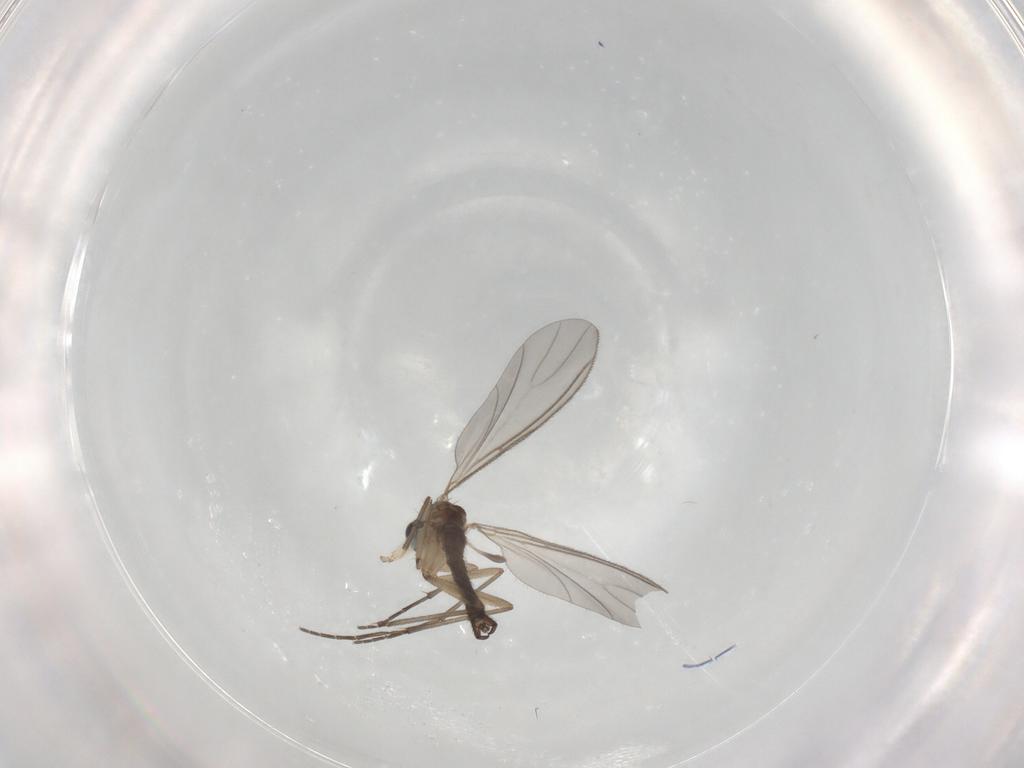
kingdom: Animalia
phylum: Arthropoda
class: Insecta
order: Diptera
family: Sciaridae
